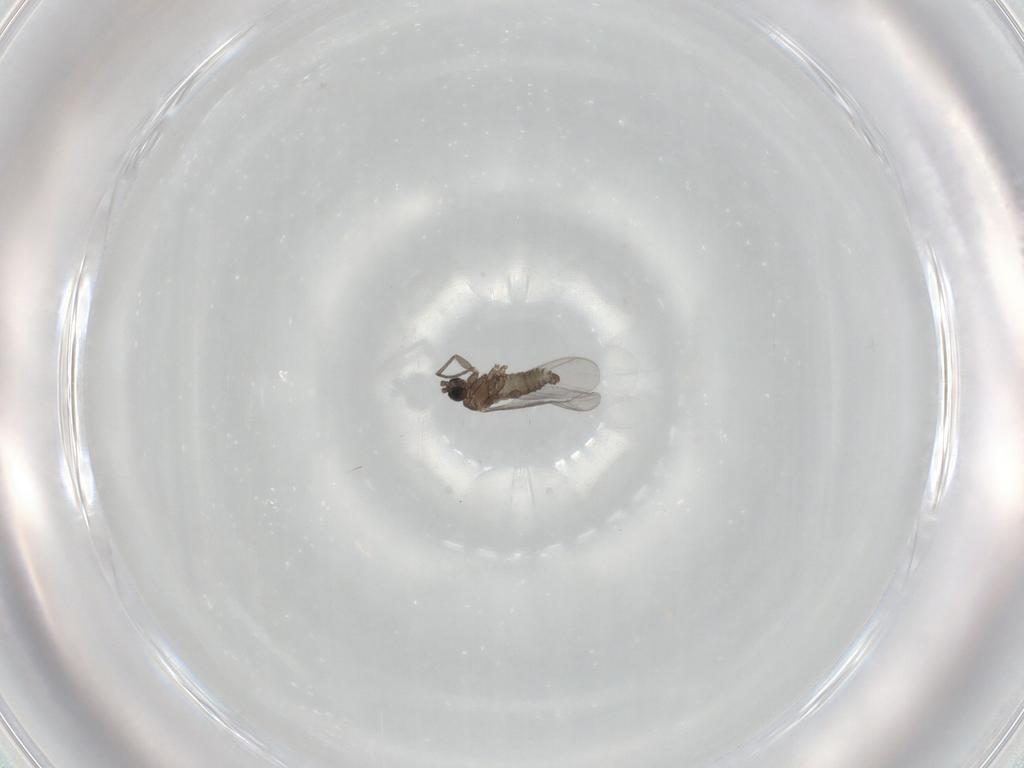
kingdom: Animalia
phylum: Arthropoda
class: Insecta
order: Diptera
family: Sciaridae
